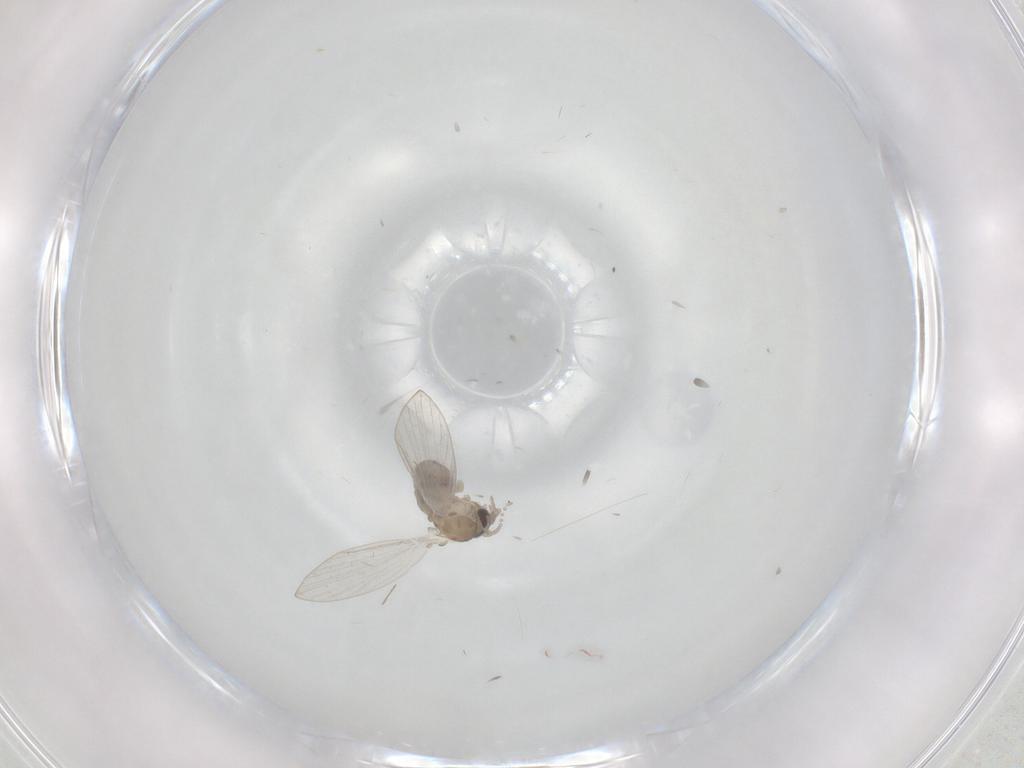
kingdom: Animalia
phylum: Arthropoda
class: Insecta
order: Diptera
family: Psychodidae
